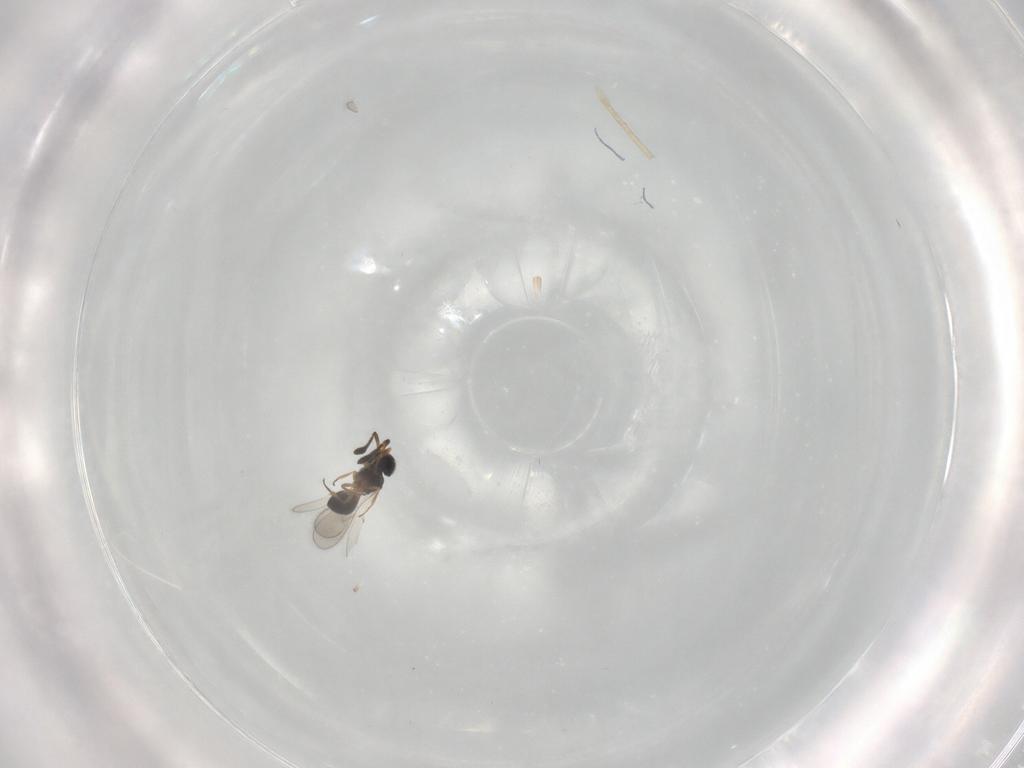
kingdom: Animalia
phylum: Arthropoda
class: Insecta
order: Hymenoptera
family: Scelionidae
